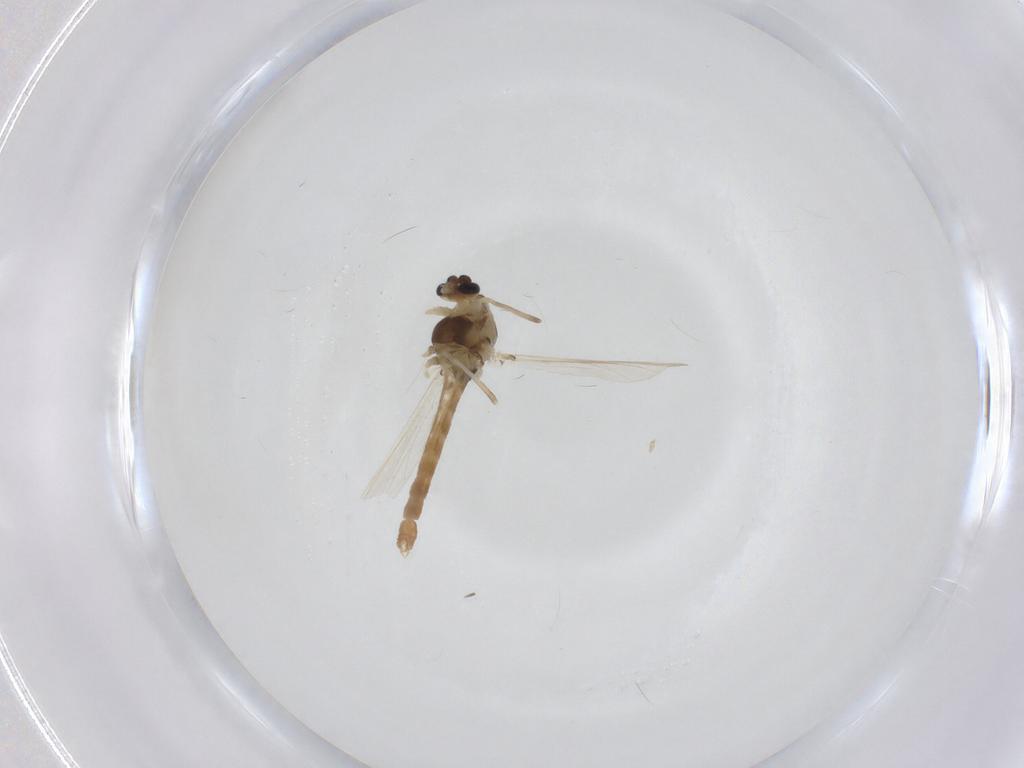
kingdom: Animalia
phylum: Arthropoda
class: Insecta
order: Diptera
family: Chironomidae
